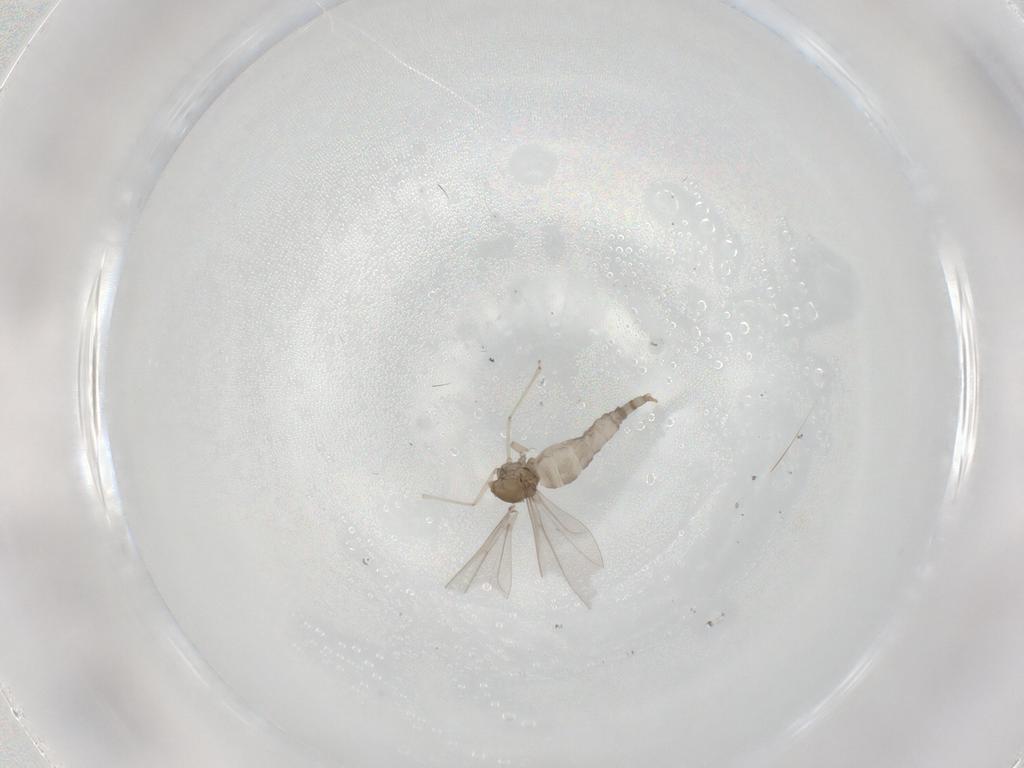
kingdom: Animalia
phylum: Arthropoda
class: Insecta
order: Diptera
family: Cecidomyiidae
